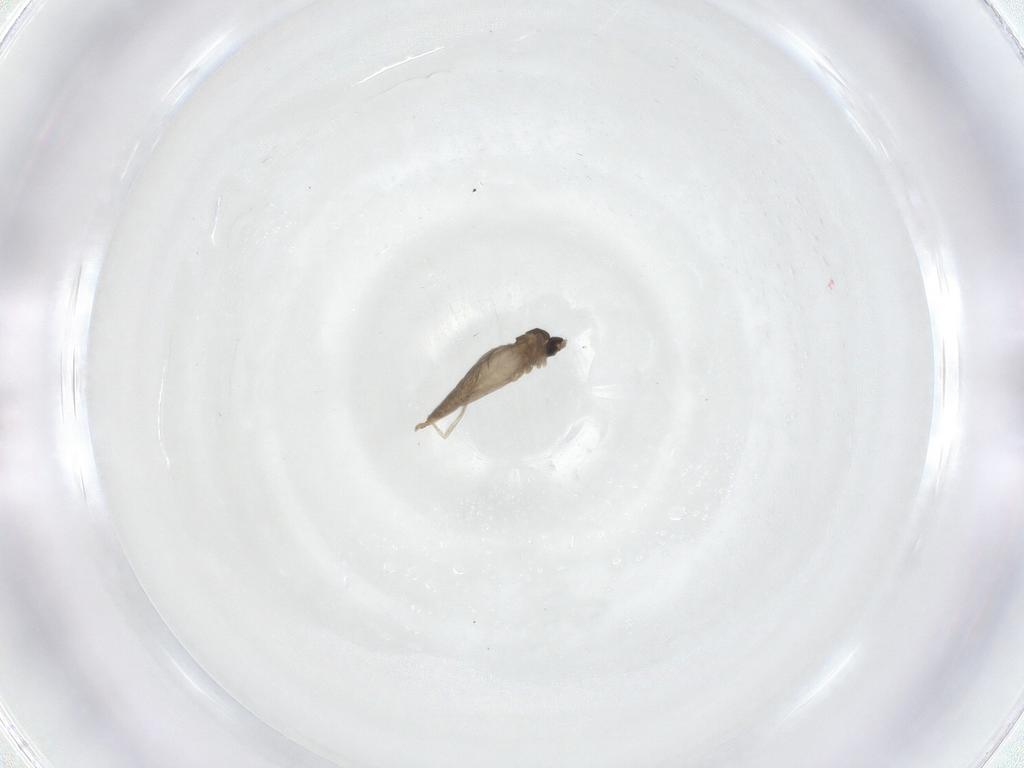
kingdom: Animalia
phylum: Arthropoda
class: Insecta
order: Diptera
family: Cecidomyiidae
